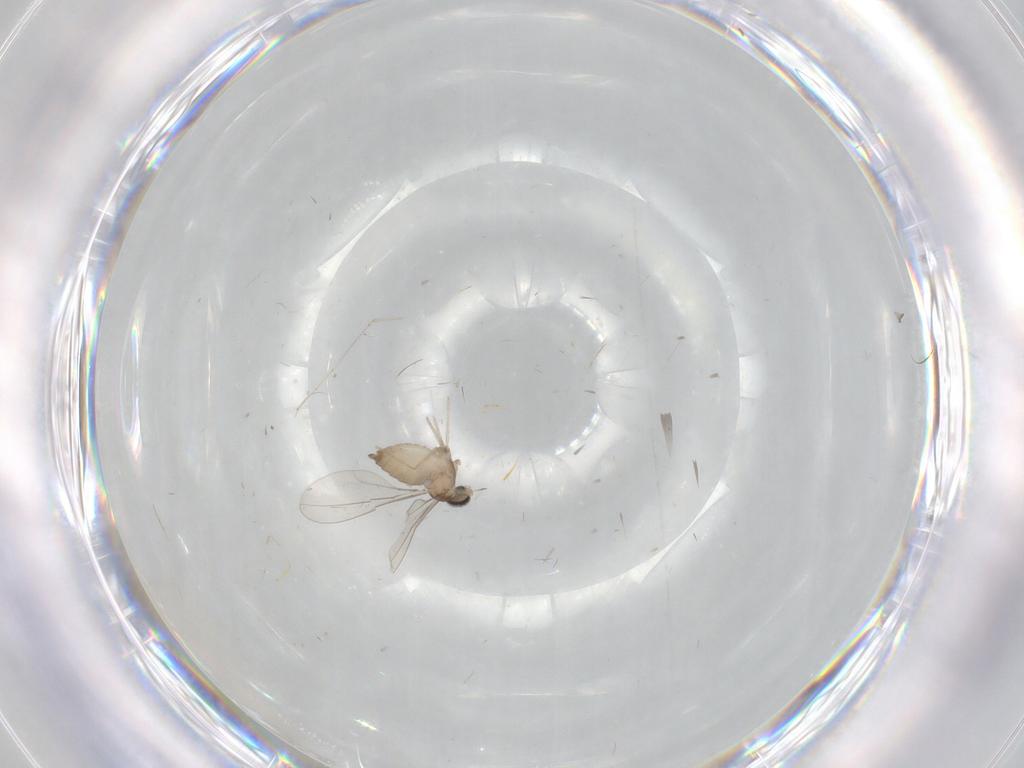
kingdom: Animalia
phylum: Arthropoda
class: Insecta
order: Diptera
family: Cecidomyiidae
